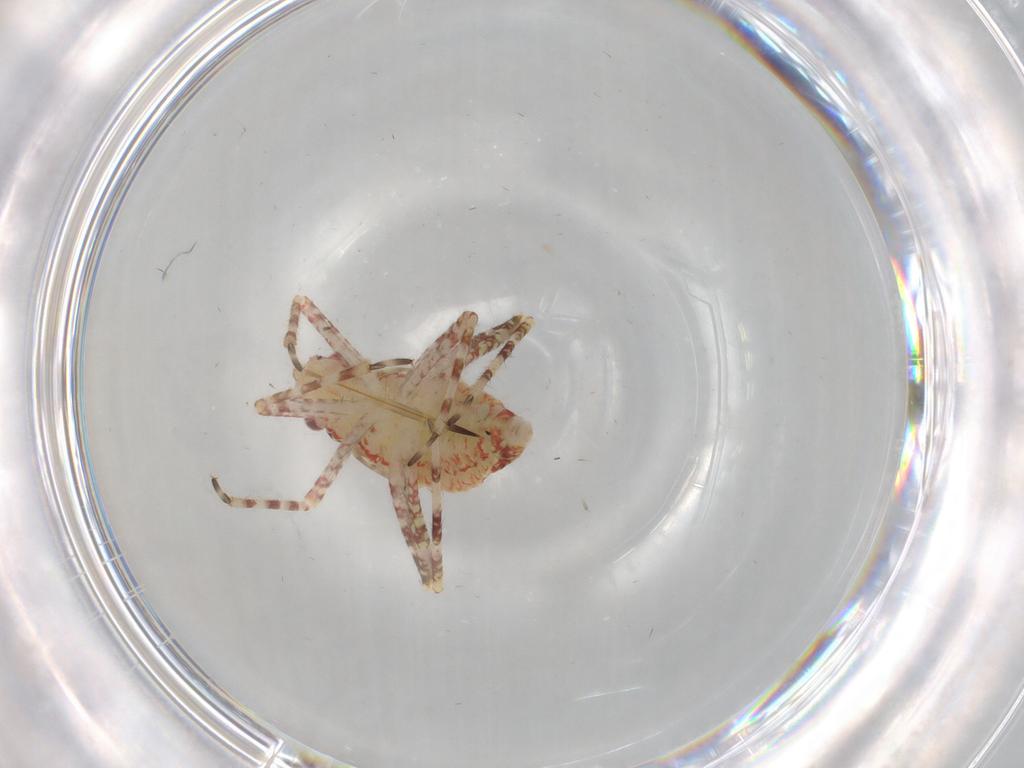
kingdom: Animalia
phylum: Arthropoda
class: Insecta
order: Hemiptera
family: Miridae
